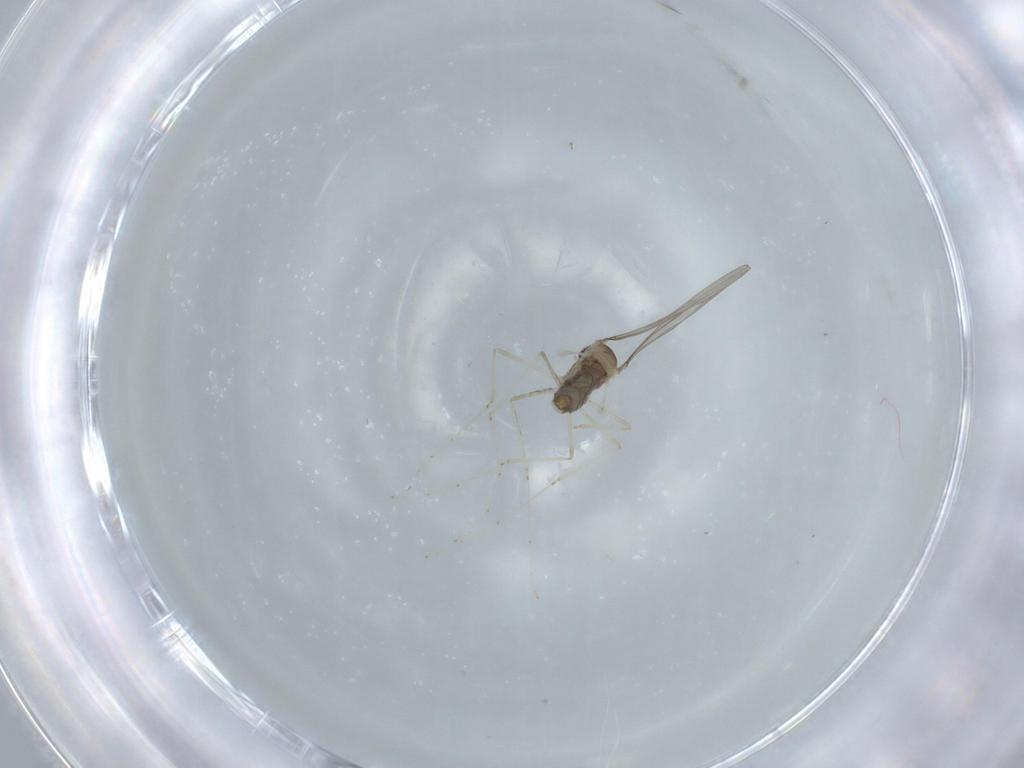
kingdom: Animalia
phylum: Arthropoda
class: Insecta
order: Diptera
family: Cecidomyiidae
